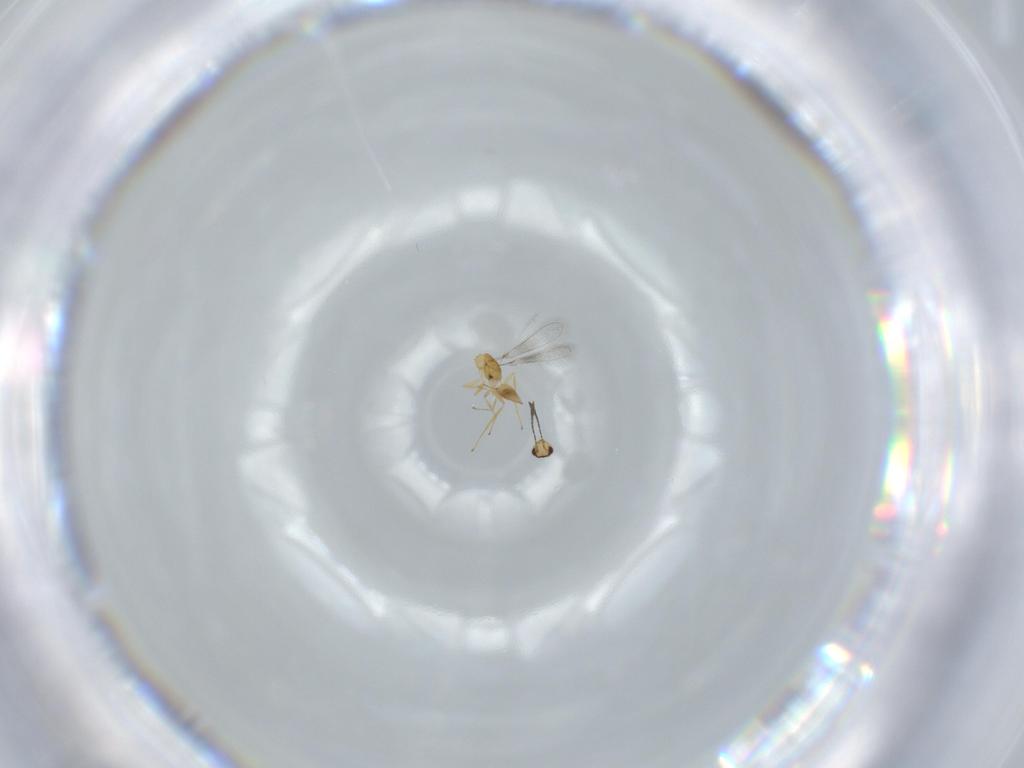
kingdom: Animalia
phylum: Arthropoda
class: Insecta
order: Hymenoptera
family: Mymaridae
